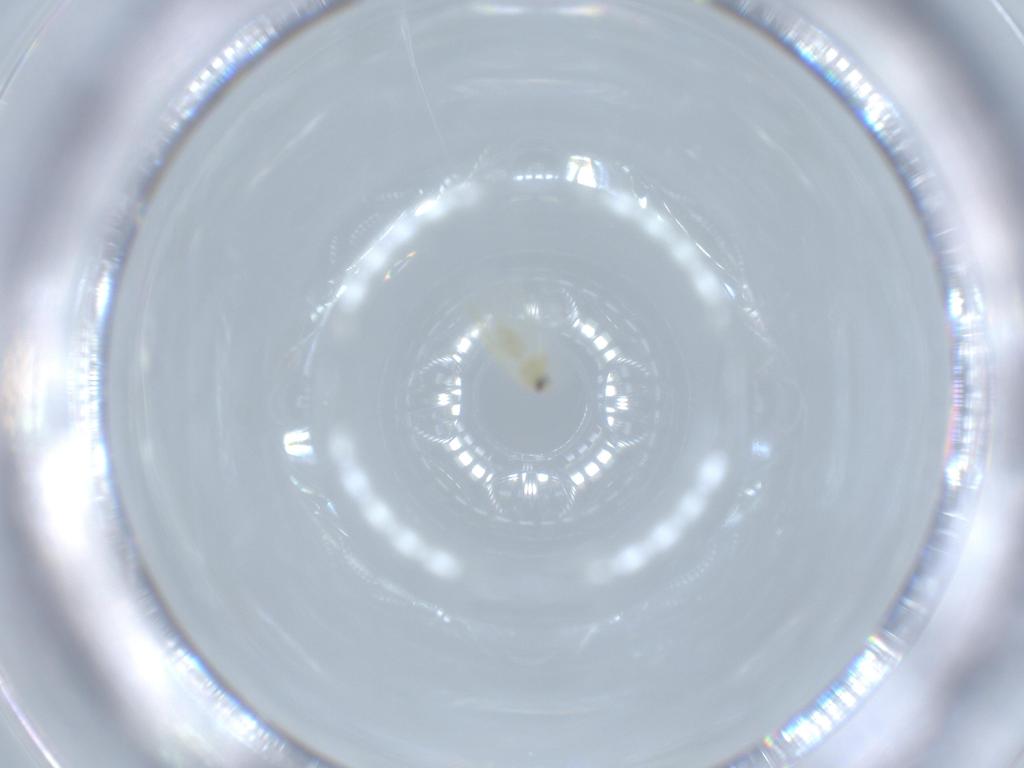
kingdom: Animalia
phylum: Arthropoda
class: Insecta
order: Hemiptera
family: Aleyrodidae
